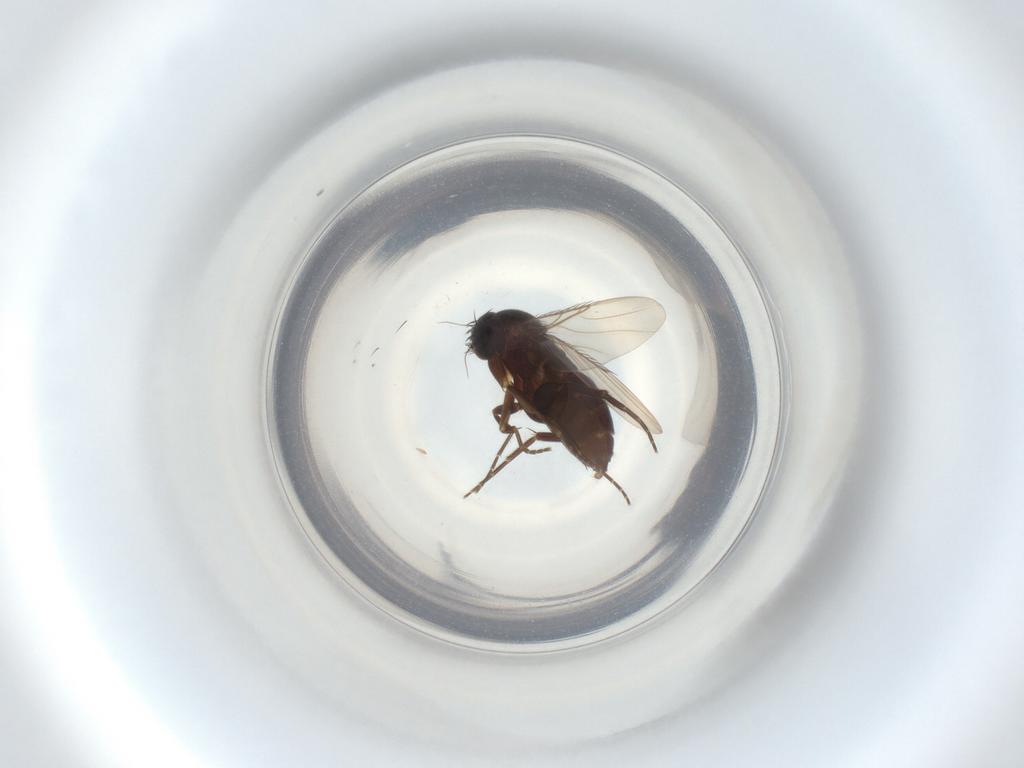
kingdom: Animalia
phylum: Arthropoda
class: Insecta
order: Diptera
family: Phoridae
